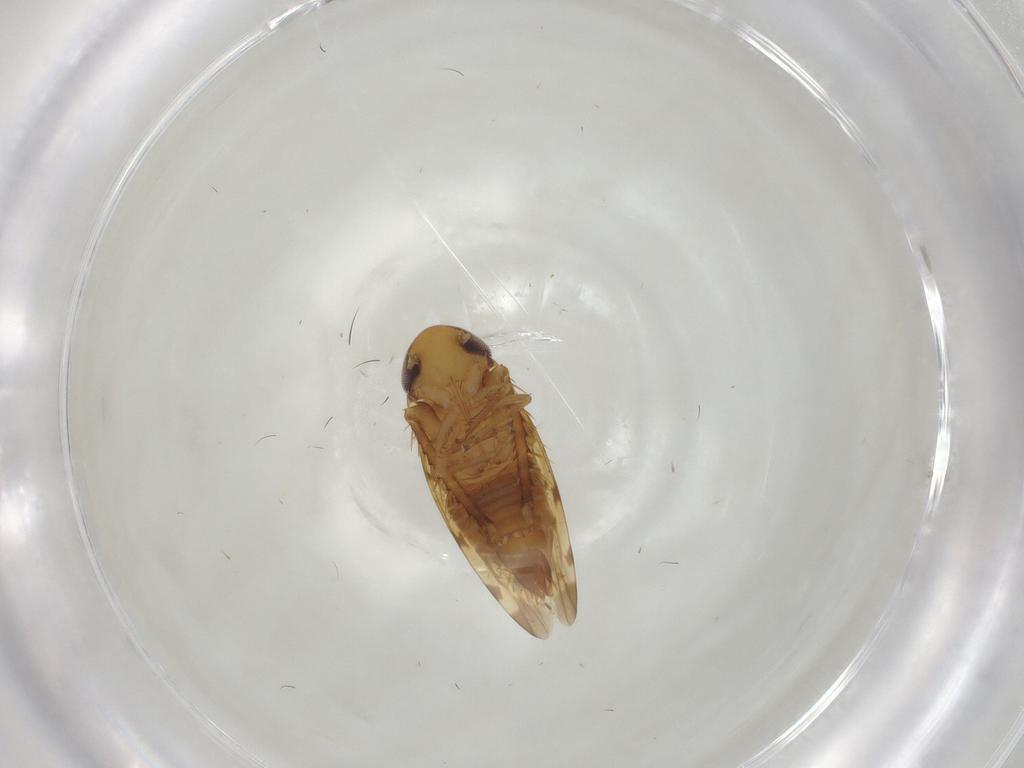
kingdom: Animalia
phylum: Arthropoda
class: Insecta
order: Hemiptera
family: Cicadellidae
